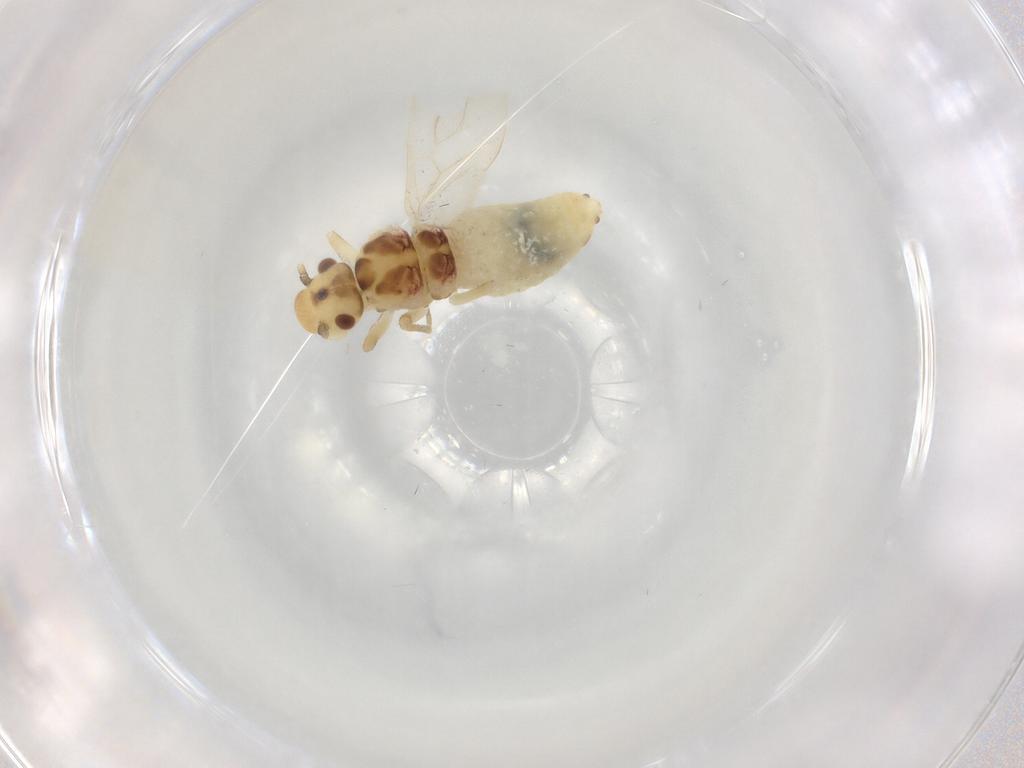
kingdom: Animalia
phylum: Arthropoda
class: Insecta
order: Psocodea
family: Caeciliusidae
